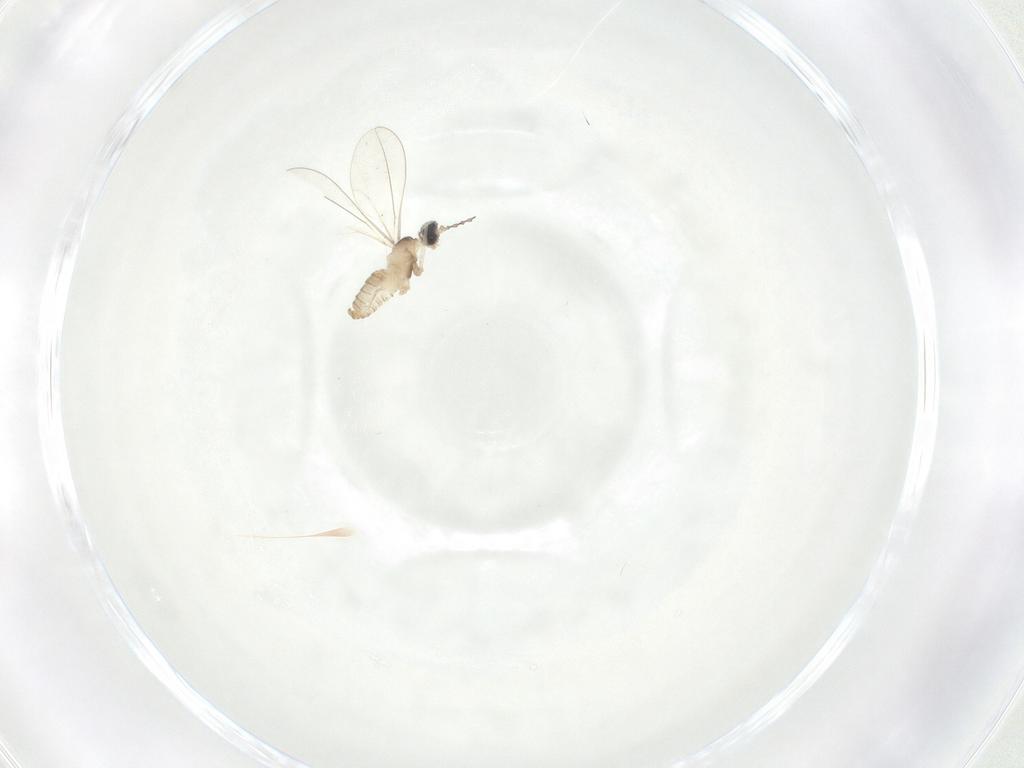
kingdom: Animalia
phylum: Arthropoda
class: Insecta
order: Diptera
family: Cecidomyiidae
